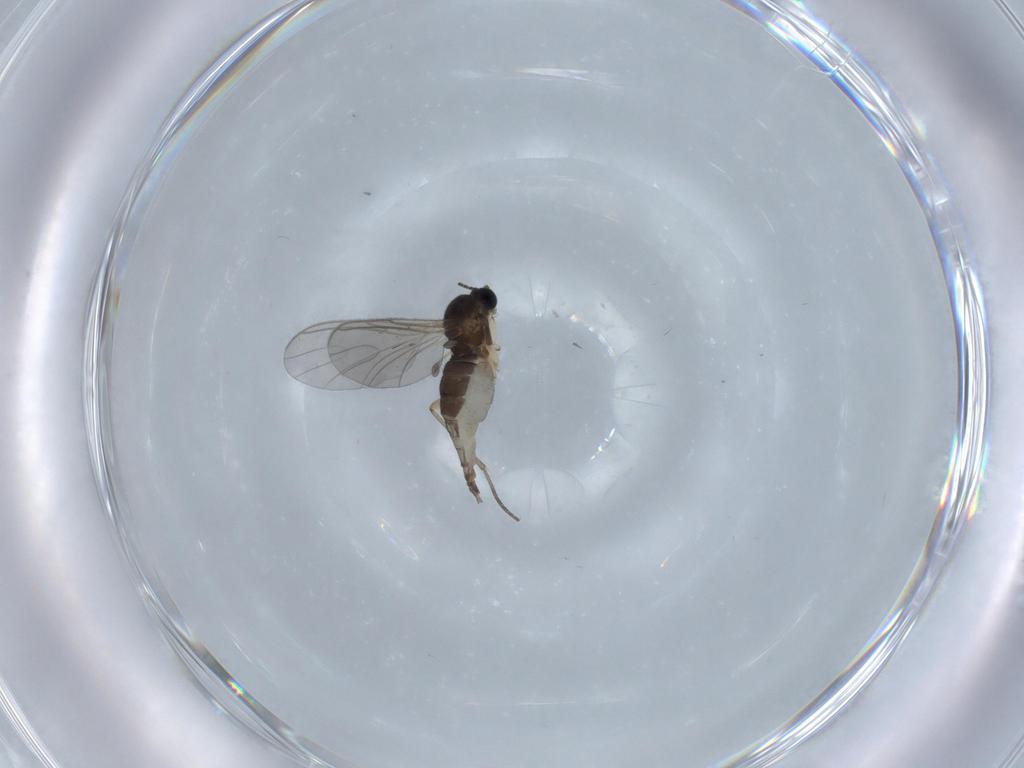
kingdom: Animalia
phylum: Arthropoda
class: Insecta
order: Diptera
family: Sciaridae
